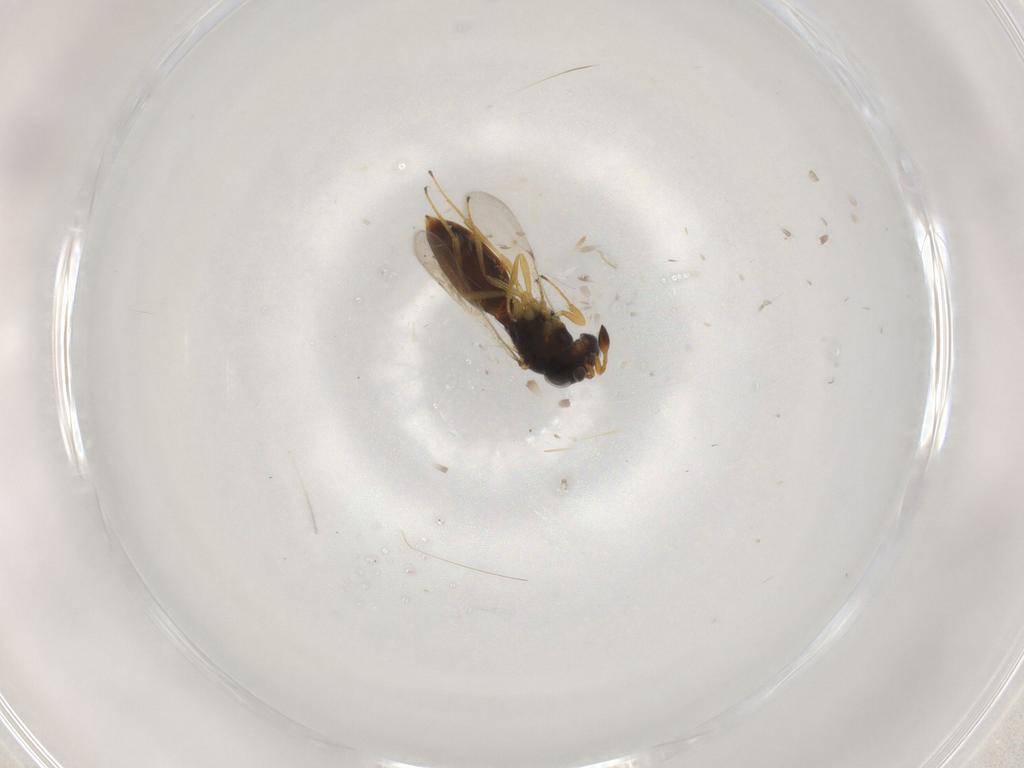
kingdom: Animalia
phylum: Arthropoda
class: Insecta
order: Hymenoptera
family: Scelionidae
